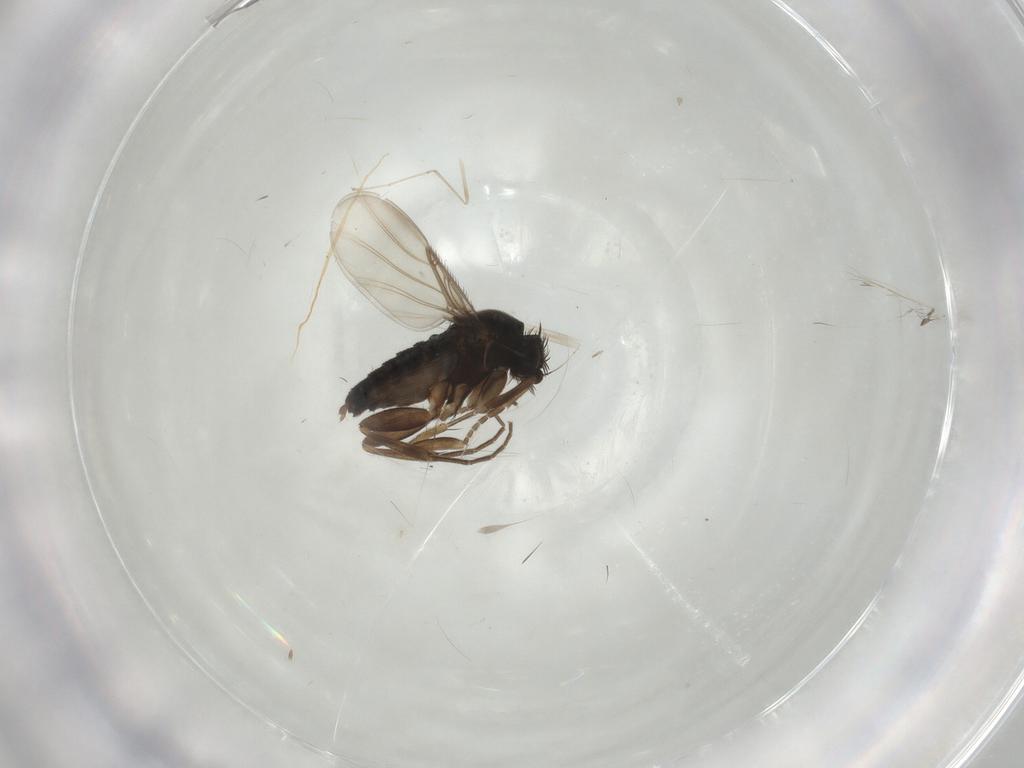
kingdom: Animalia
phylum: Arthropoda
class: Insecta
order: Diptera
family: Phoridae
